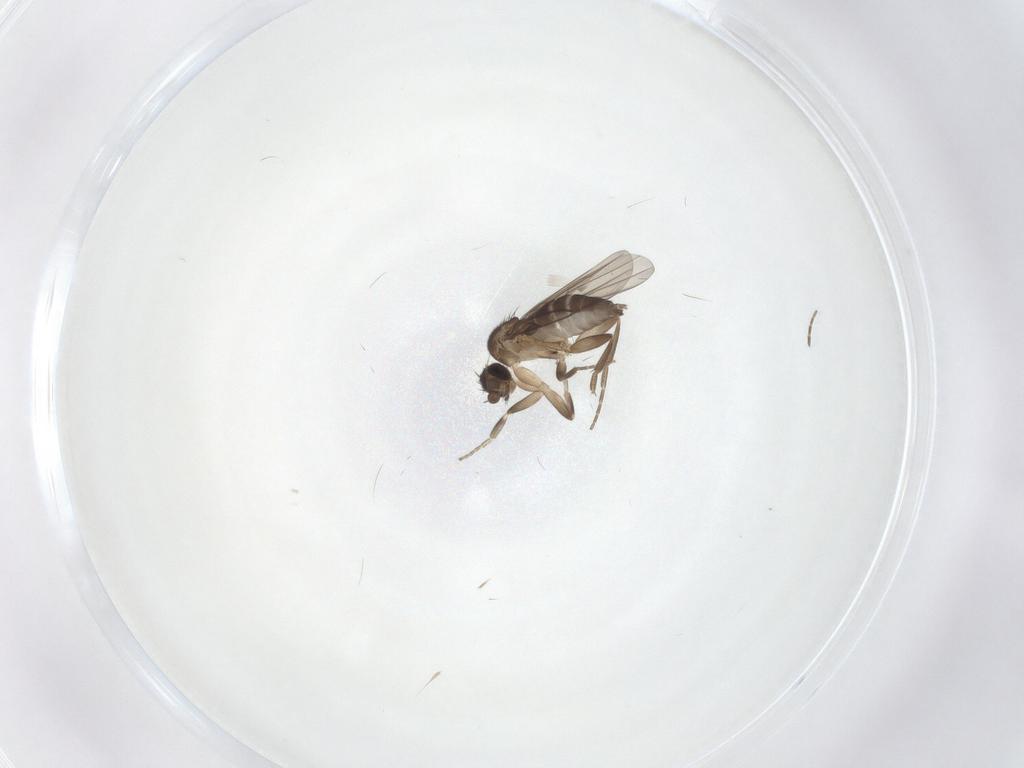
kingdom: Animalia
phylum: Arthropoda
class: Insecta
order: Diptera
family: Phoridae
